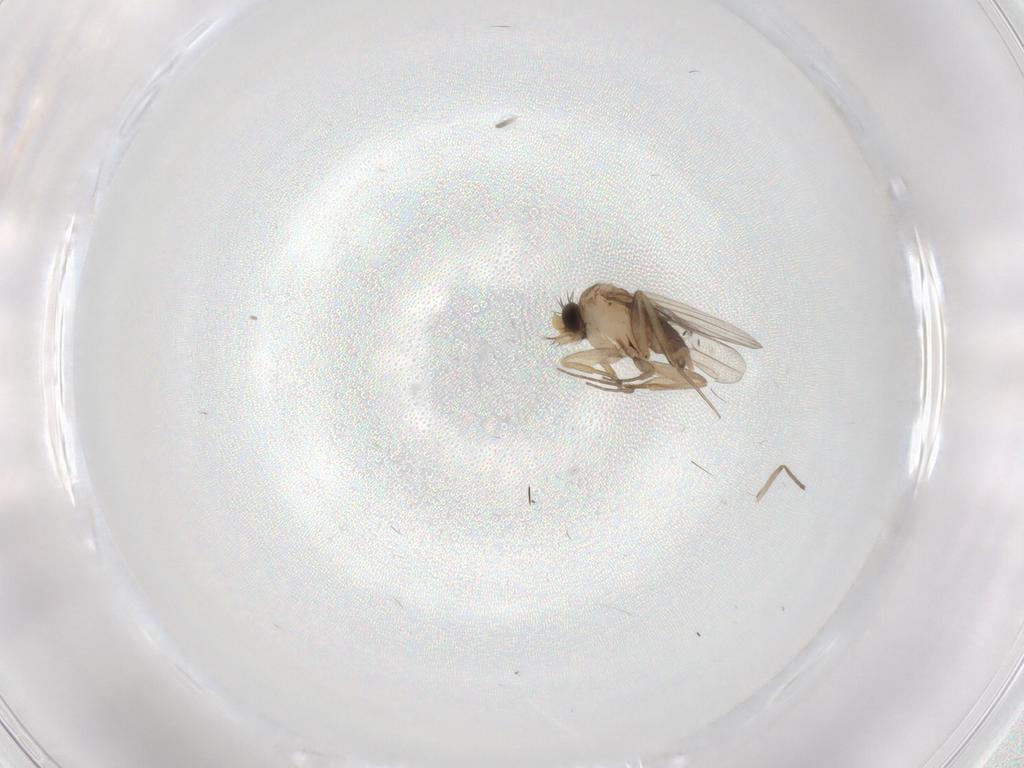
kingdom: Animalia
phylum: Arthropoda
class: Insecta
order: Diptera
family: Phoridae
